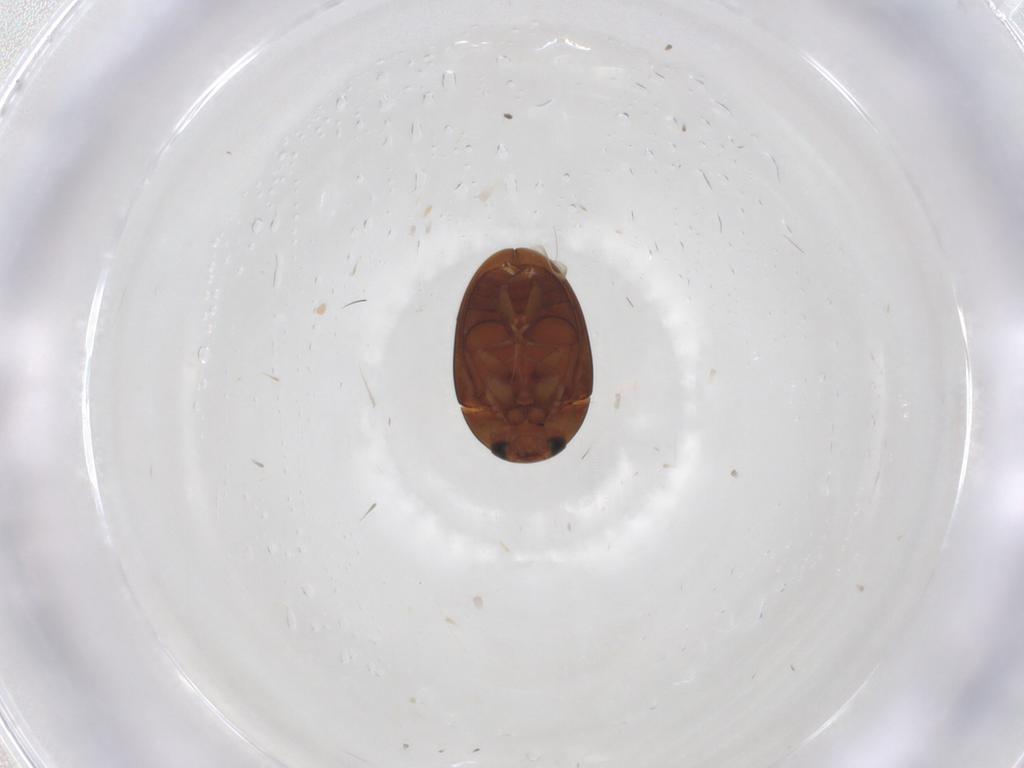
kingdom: Animalia
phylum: Arthropoda
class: Insecta
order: Coleoptera
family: Phalacridae
